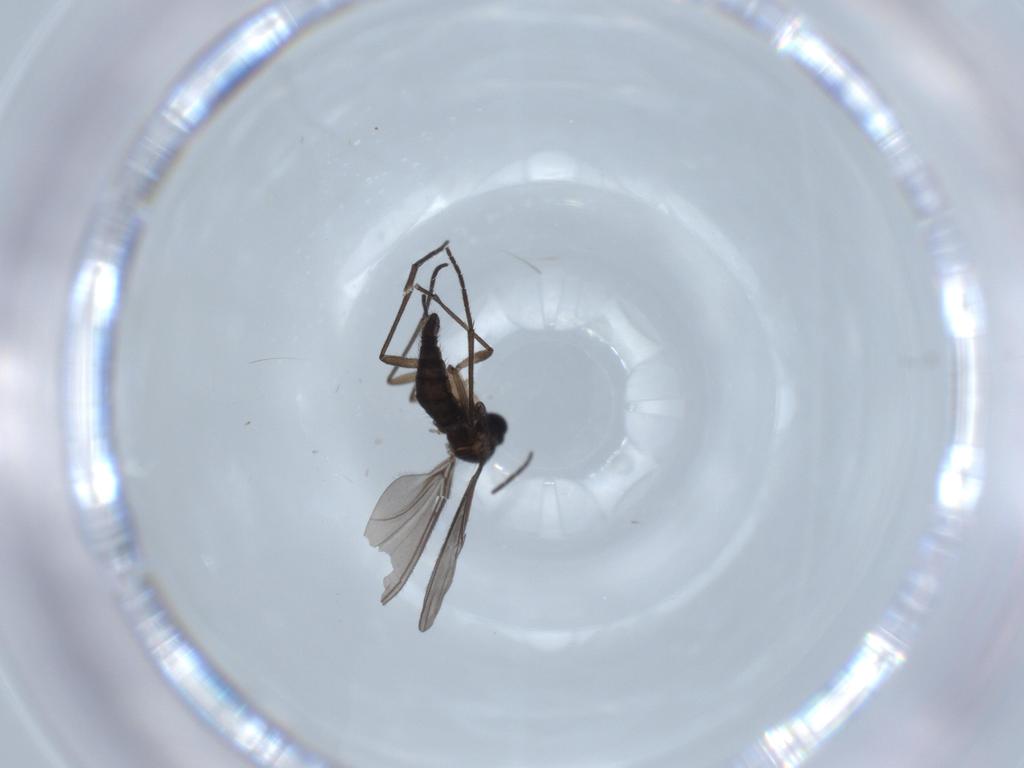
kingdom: Animalia
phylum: Arthropoda
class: Insecta
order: Diptera
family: Sciaridae
